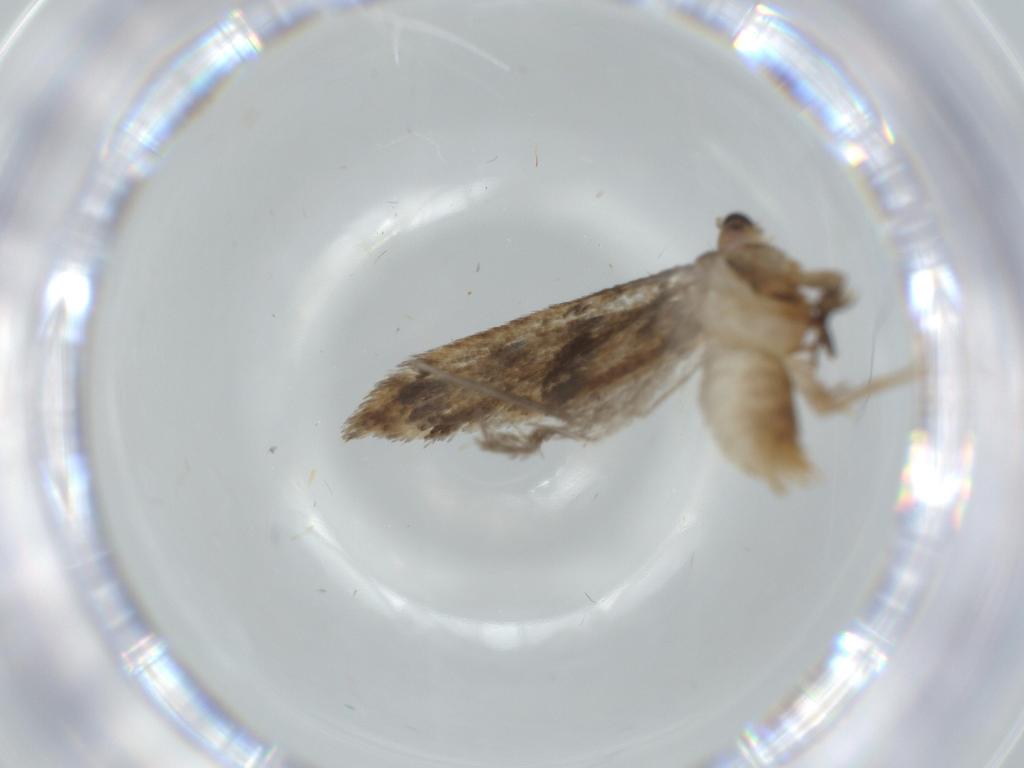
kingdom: Animalia
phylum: Arthropoda
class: Insecta
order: Lepidoptera
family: Tineidae
